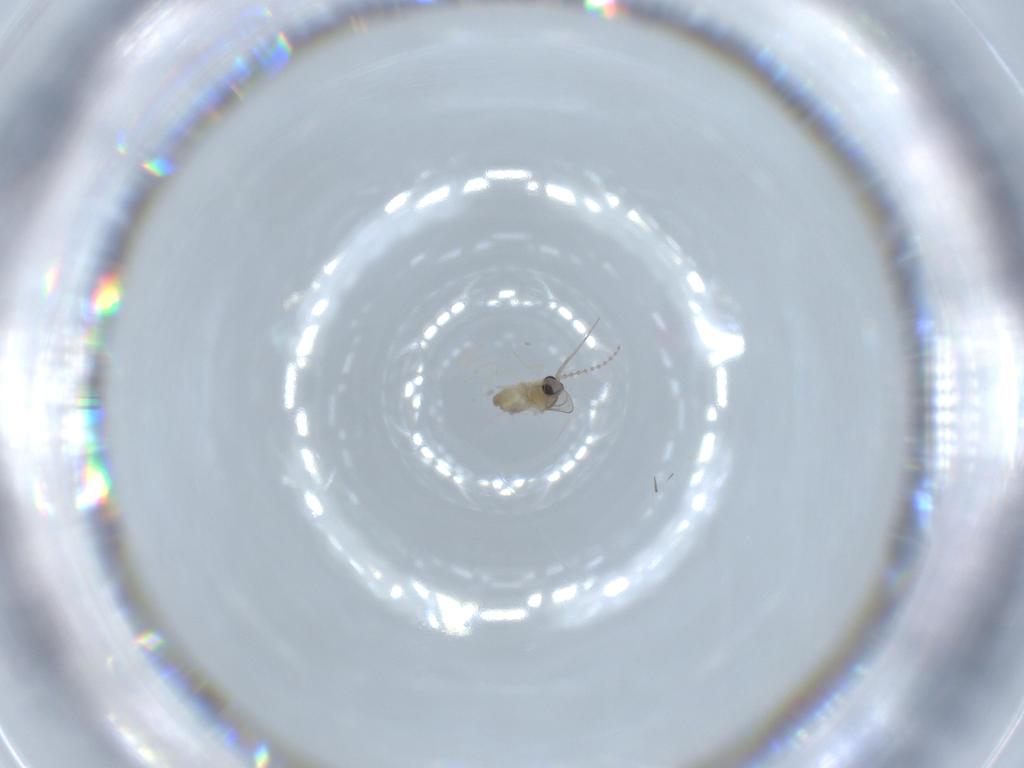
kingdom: Animalia
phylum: Arthropoda
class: Insecta
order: Diptera
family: Cecidomyiidae
